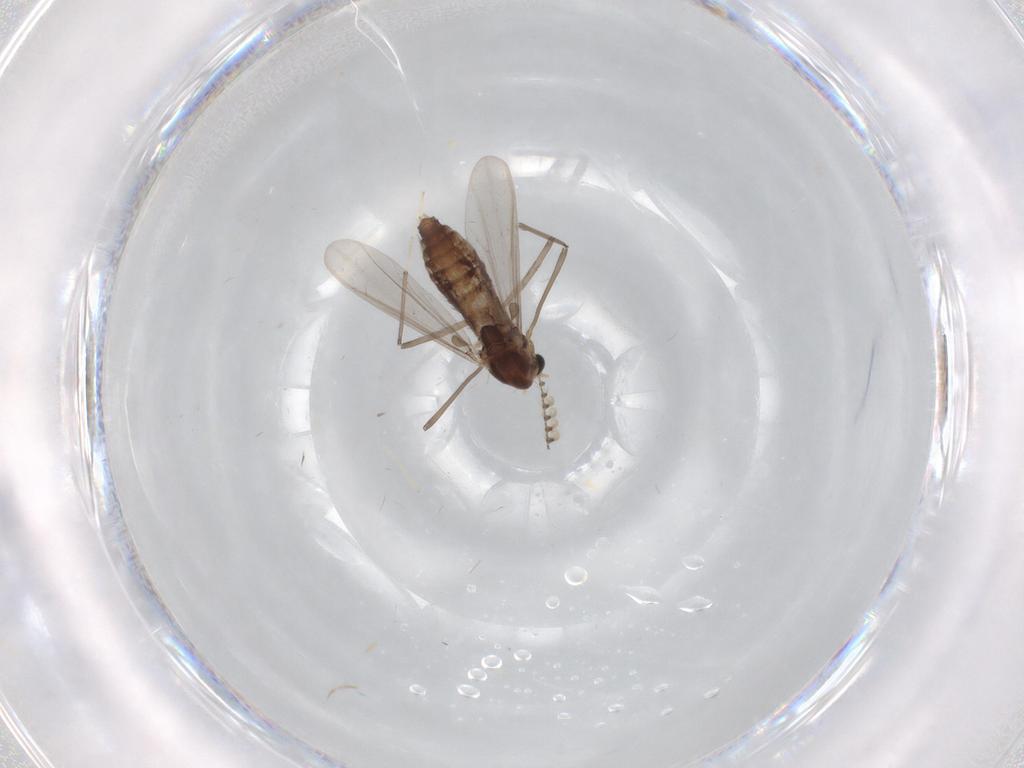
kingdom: Animalia
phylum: Arthropoda
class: Insecta
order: Diptera
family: Chironomidae
